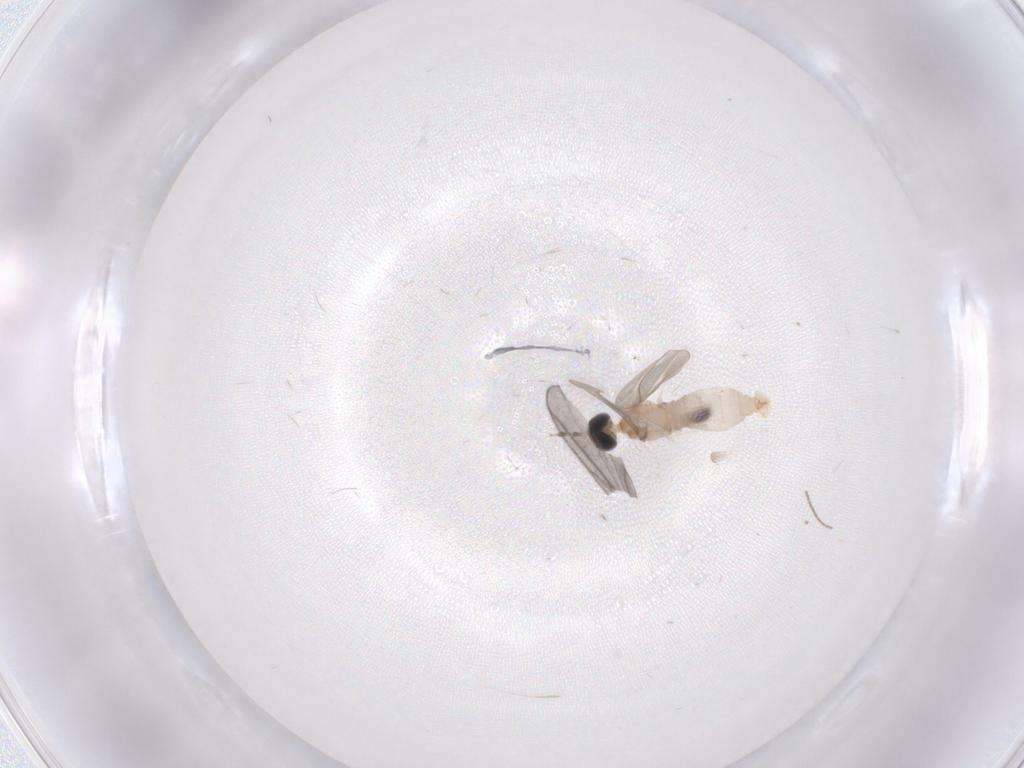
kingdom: Animalia
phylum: Arthropoda
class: Insecta
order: Diptera
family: Sciaridae
